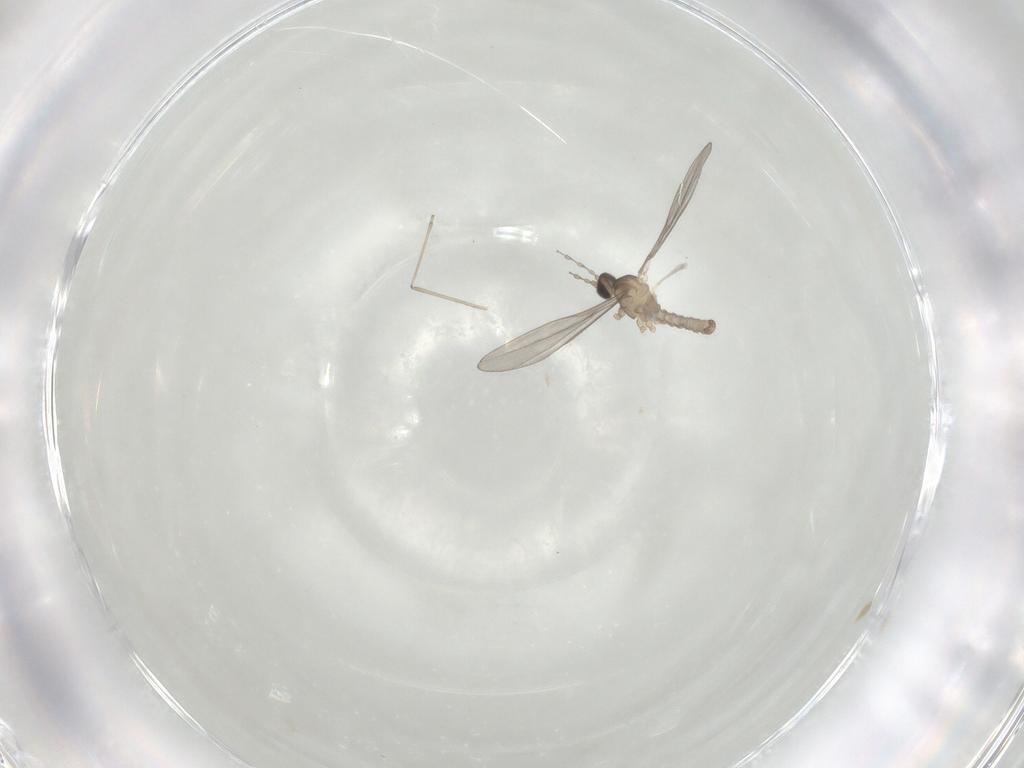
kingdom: Animalia
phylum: Arthropoda
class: Insecta
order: Diptera
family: Cecidomyiidae
